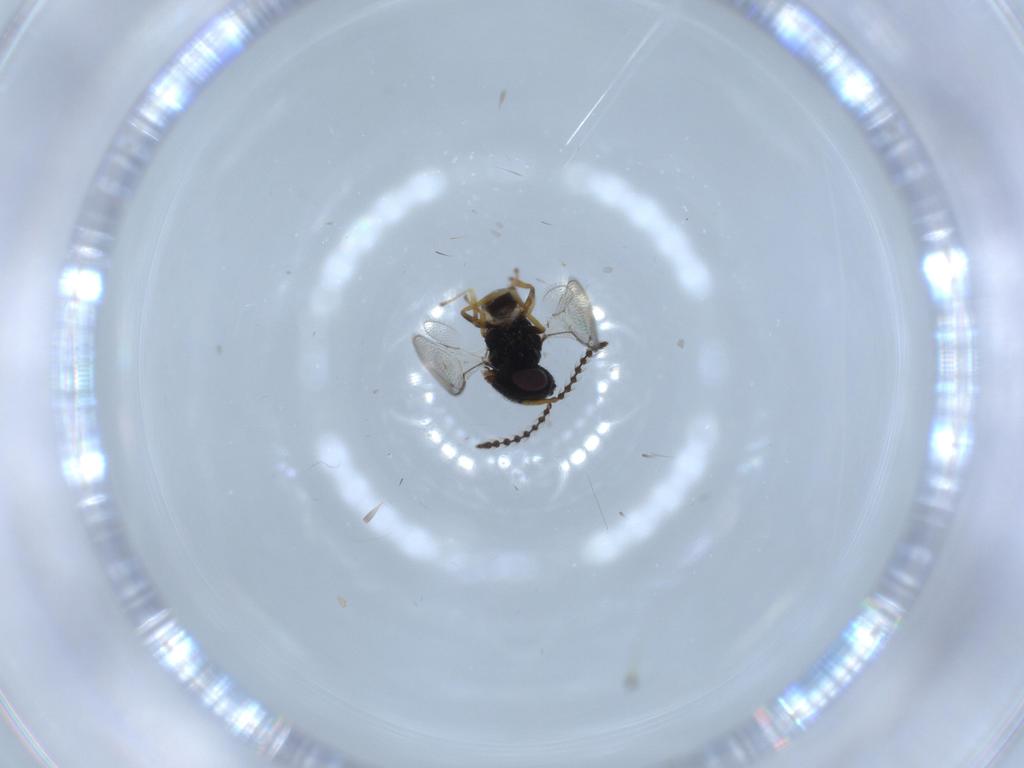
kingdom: Animalia
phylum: Arthropoda
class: Insecta
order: Hymenoptera
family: Pteromalidae
